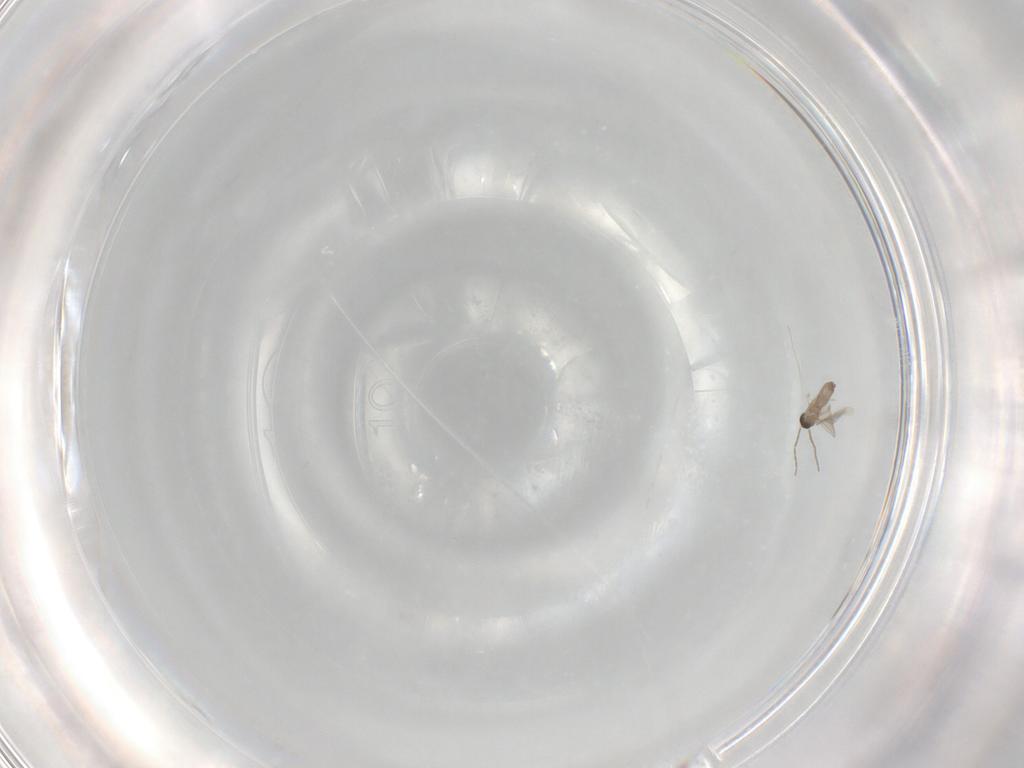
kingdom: Animalia
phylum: Arthropoda
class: Insecta
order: Diptera
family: Cecidomyiidae
